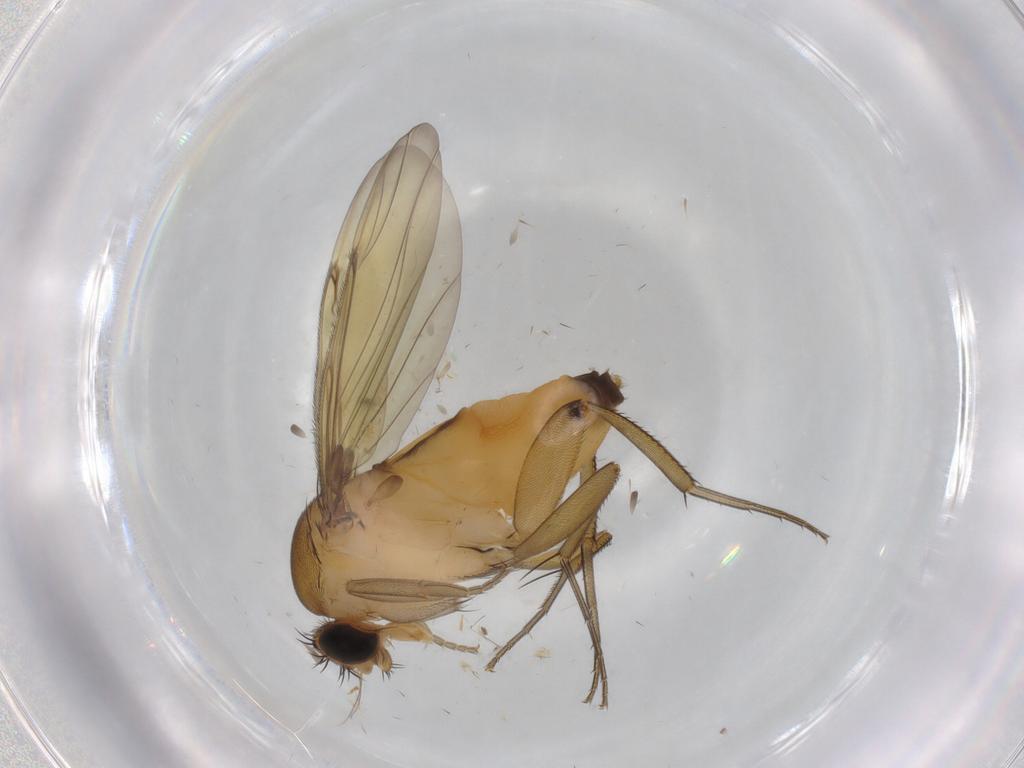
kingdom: Animalia
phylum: Arthropoda
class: Insecta
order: Diptera
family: Phoridae
